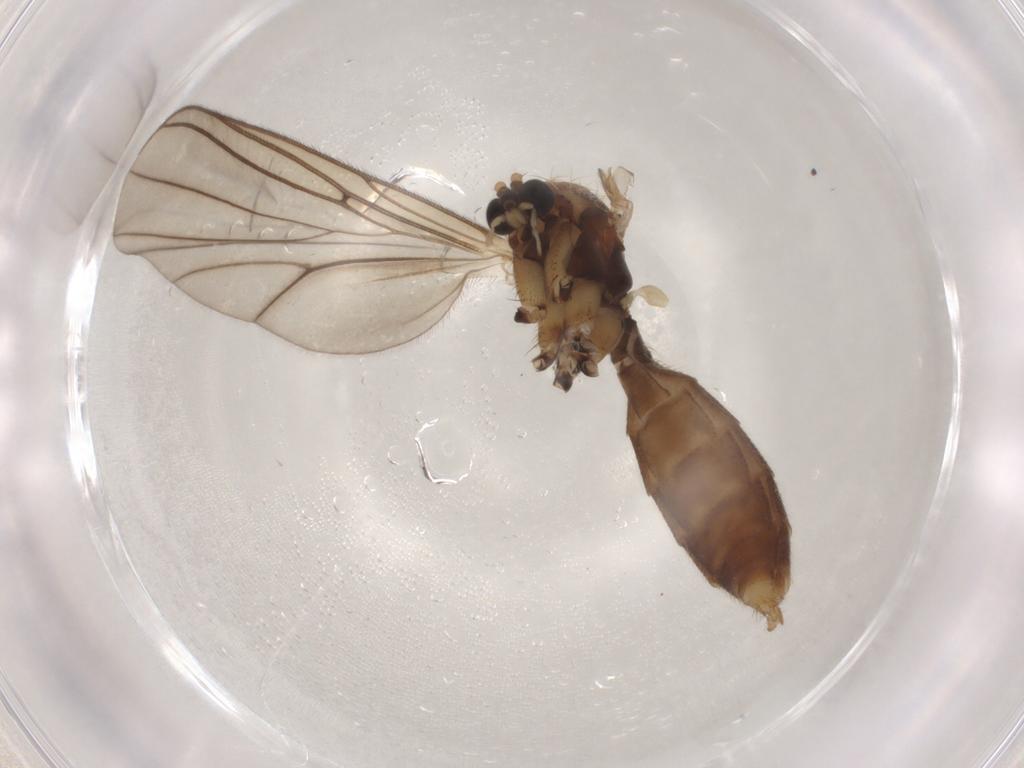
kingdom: Animalia
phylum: Arthropoda
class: Insecta
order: Diptera
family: Mycetophilidae
